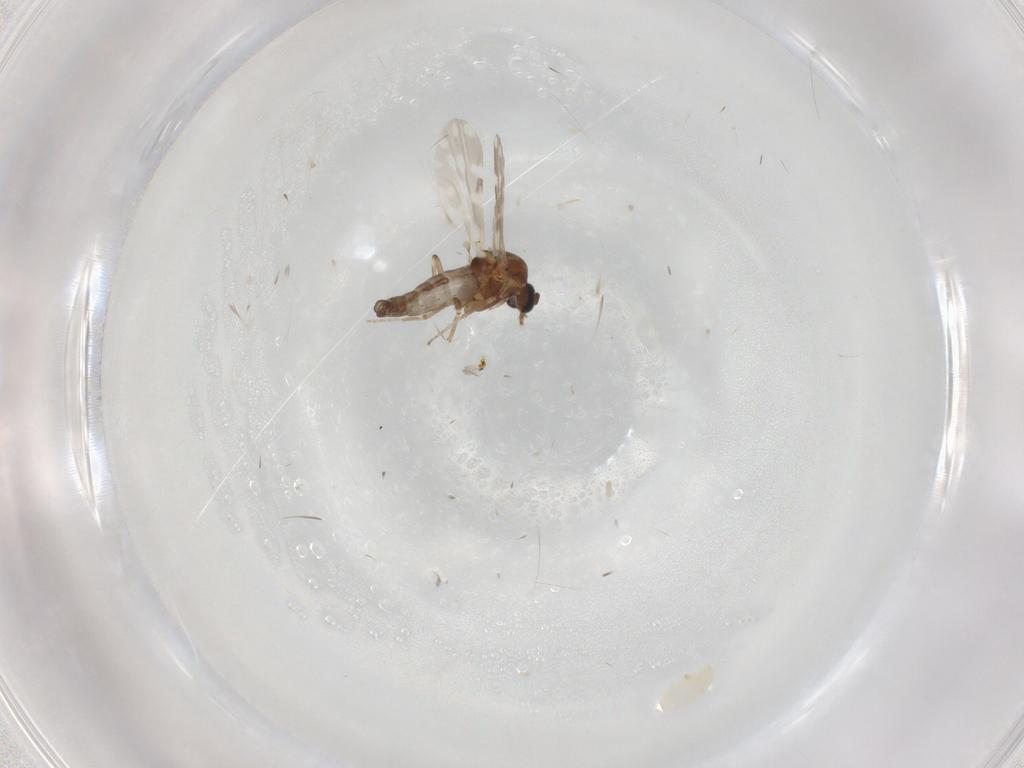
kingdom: Animalia
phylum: Arthropoda
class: Insecta
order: Diptera
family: Ceratopogonidae
